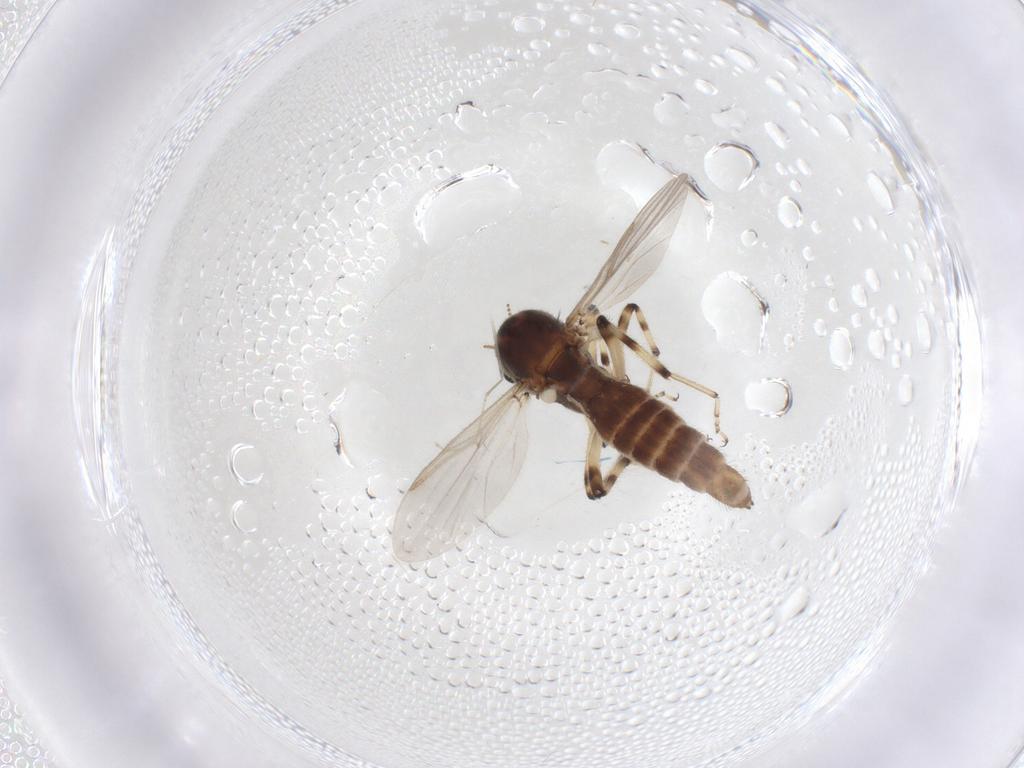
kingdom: Animalia
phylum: Arthropoda
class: Insecta
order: Diptera
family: Ceratopogonidae
